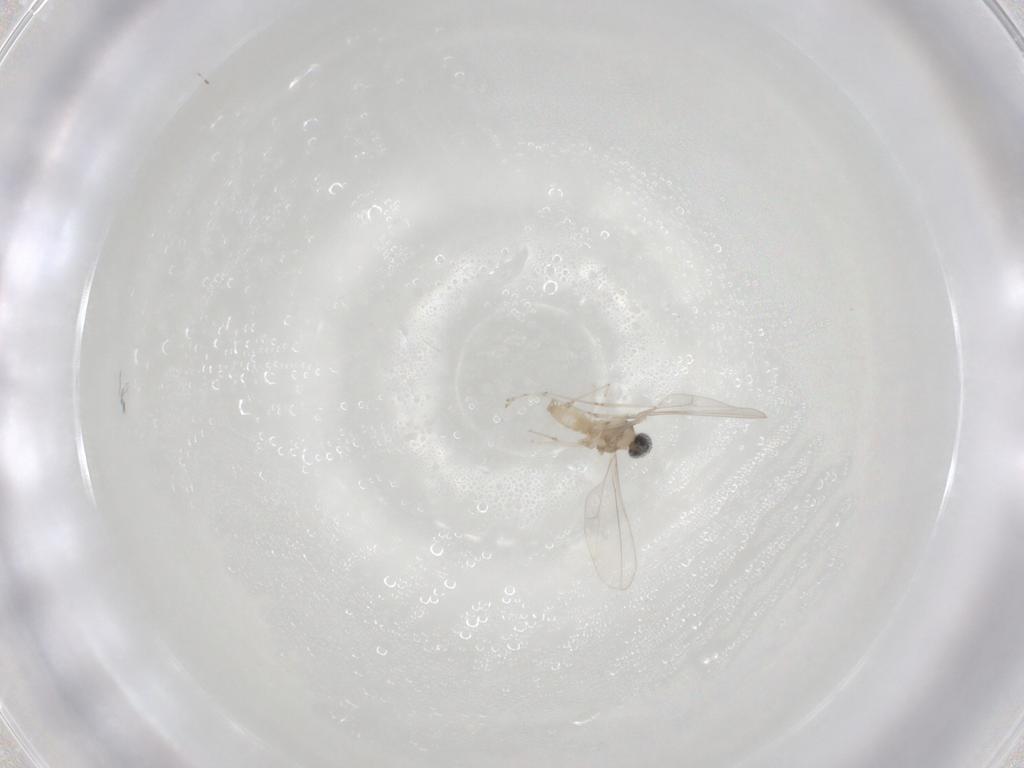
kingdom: Animalia
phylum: Arthropoda
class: Insecta
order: Diptera
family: Cecidomyiidae
